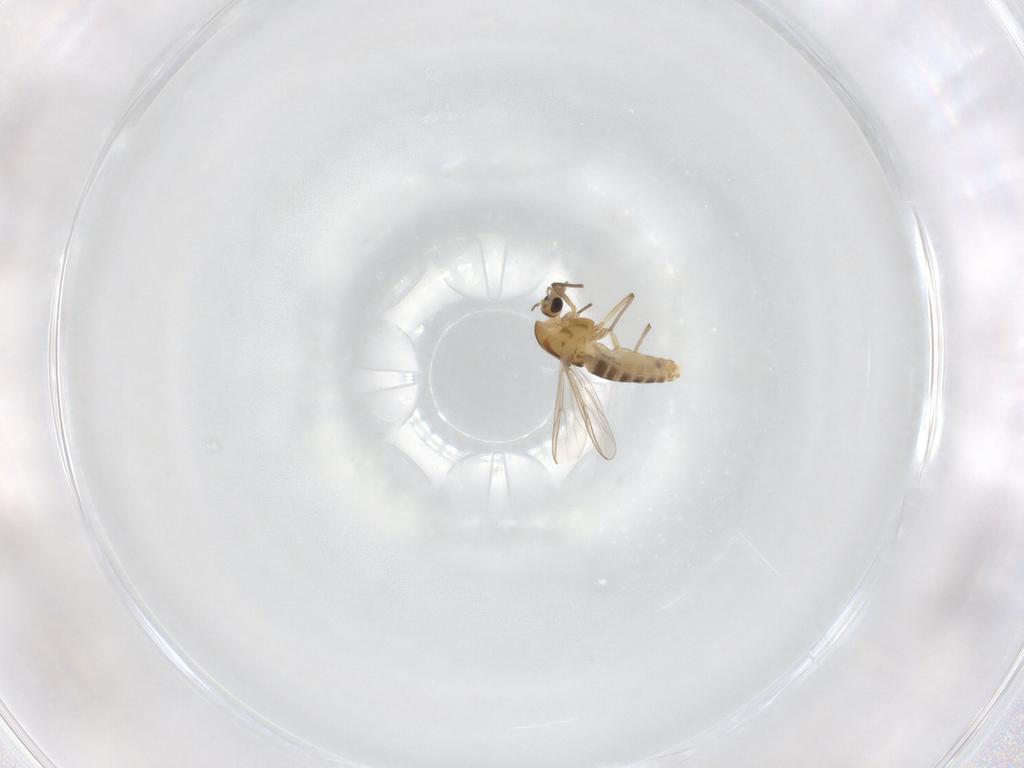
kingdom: Animalia
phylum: Arthropoda
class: Insecta
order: Diptera
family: Chironomidae
